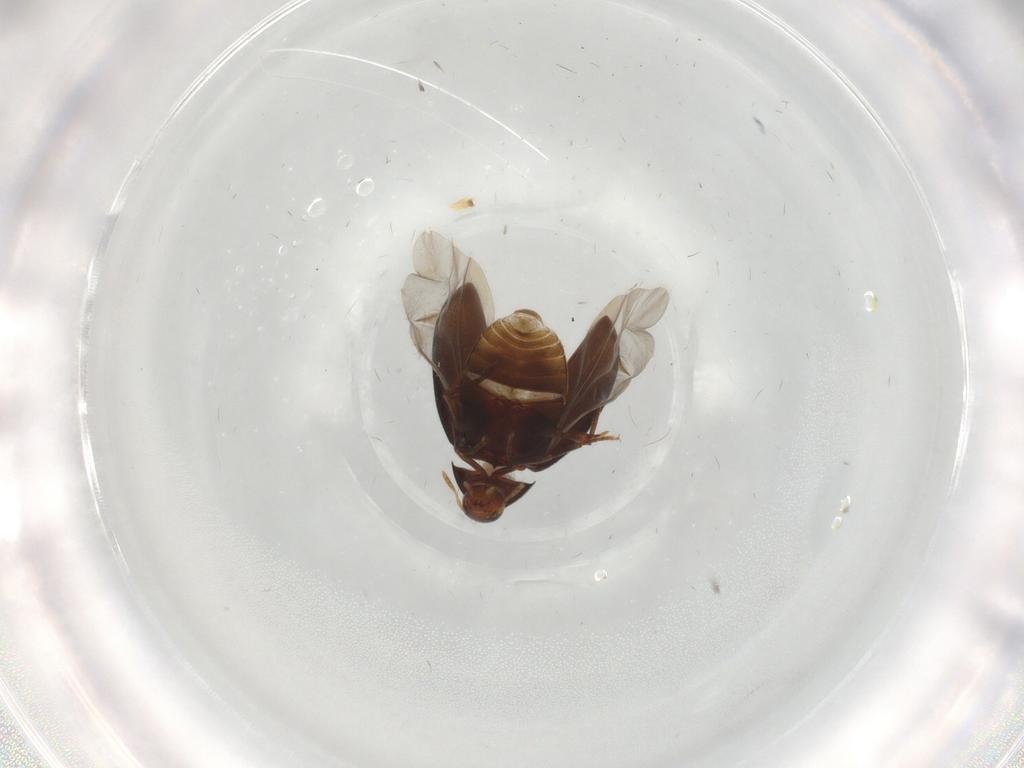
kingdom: Animalia
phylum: Arthropoda
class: Insecta
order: Coleoptera
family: Melandryidae
